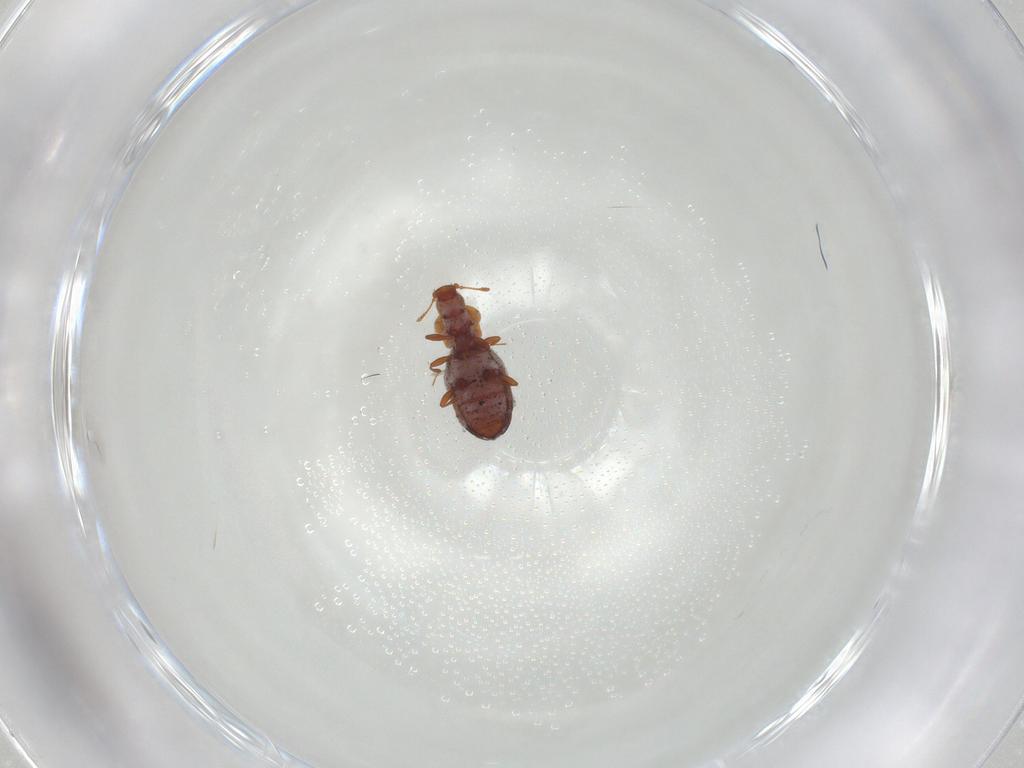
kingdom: Animalia
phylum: Arthropoda
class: Insecta
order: Coleoptera
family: Latridiidae
